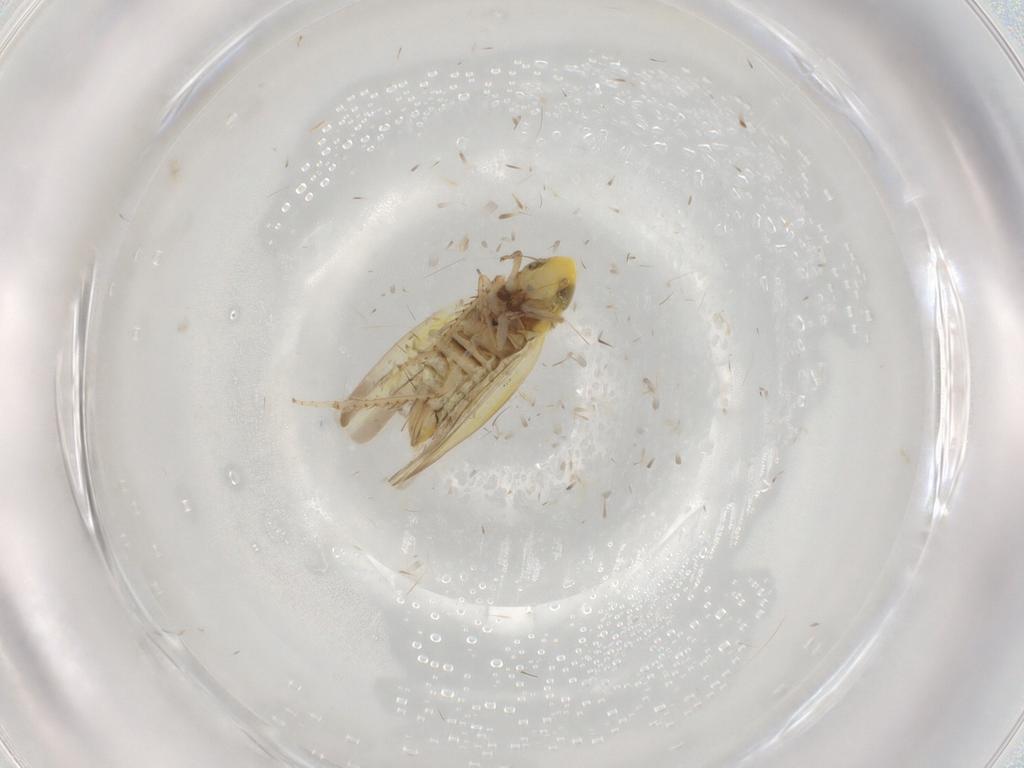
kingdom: Animalia
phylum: Arthropoda
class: Insecta
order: Hemiptera
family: Cicadellidae
